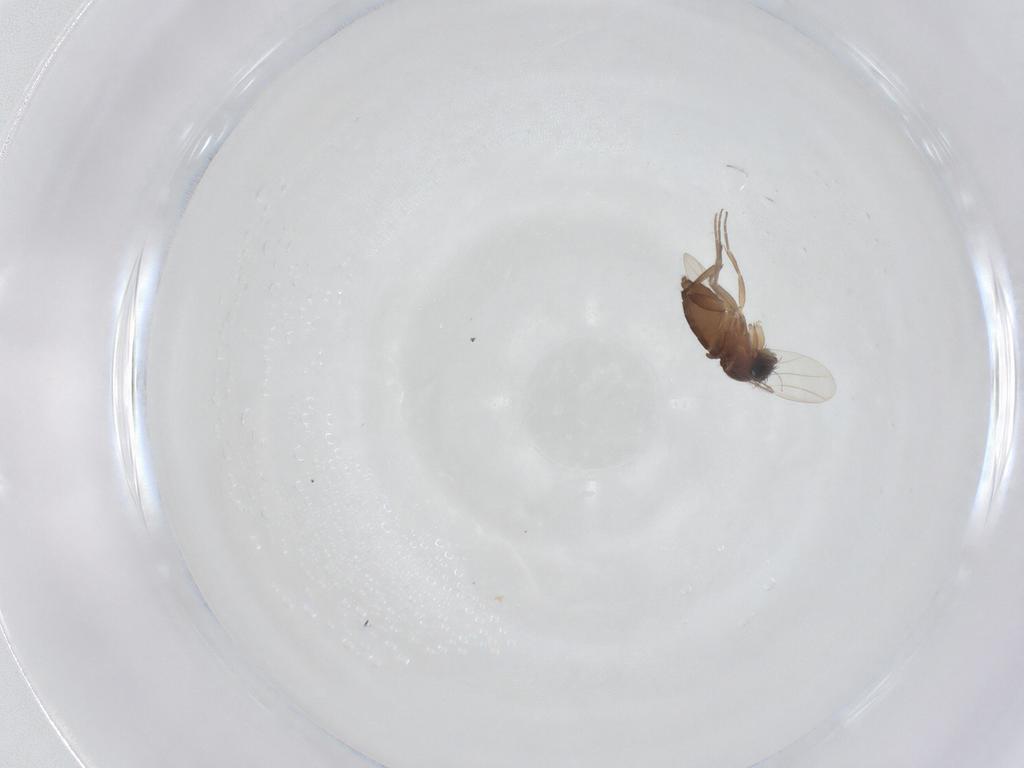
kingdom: Animalia
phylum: Arthropoda
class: Insecta
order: Diptera
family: Phoridae
